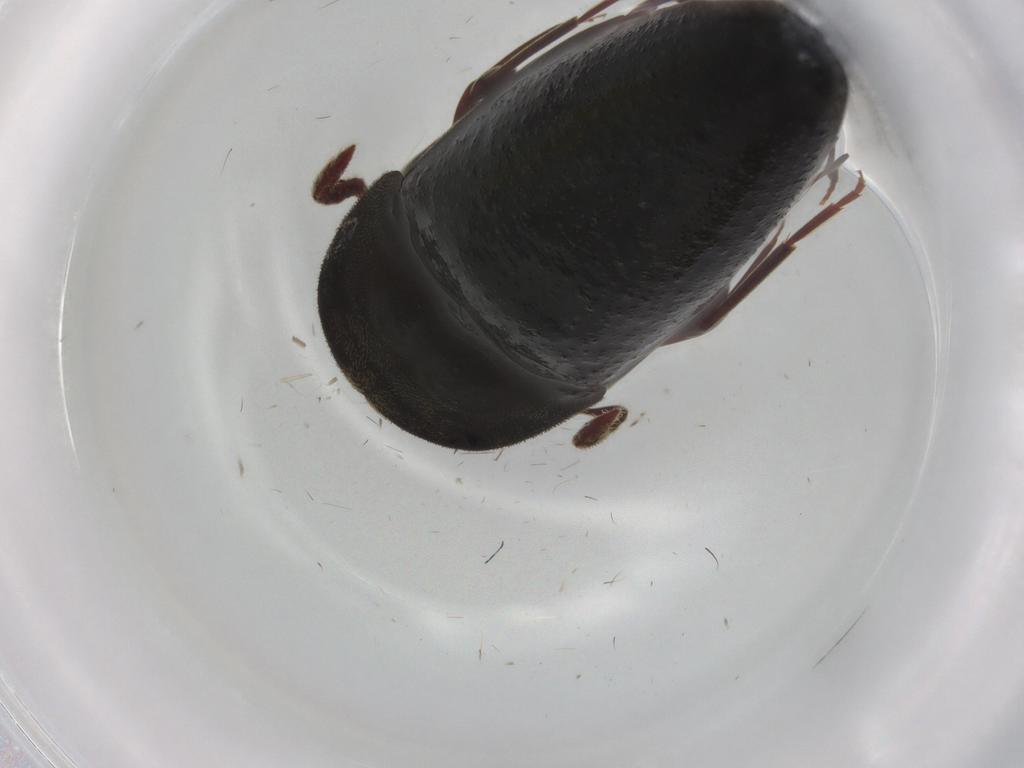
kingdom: Animalia
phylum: Arthropoda
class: Insecta
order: Coleoptera
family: Eucnemidae
